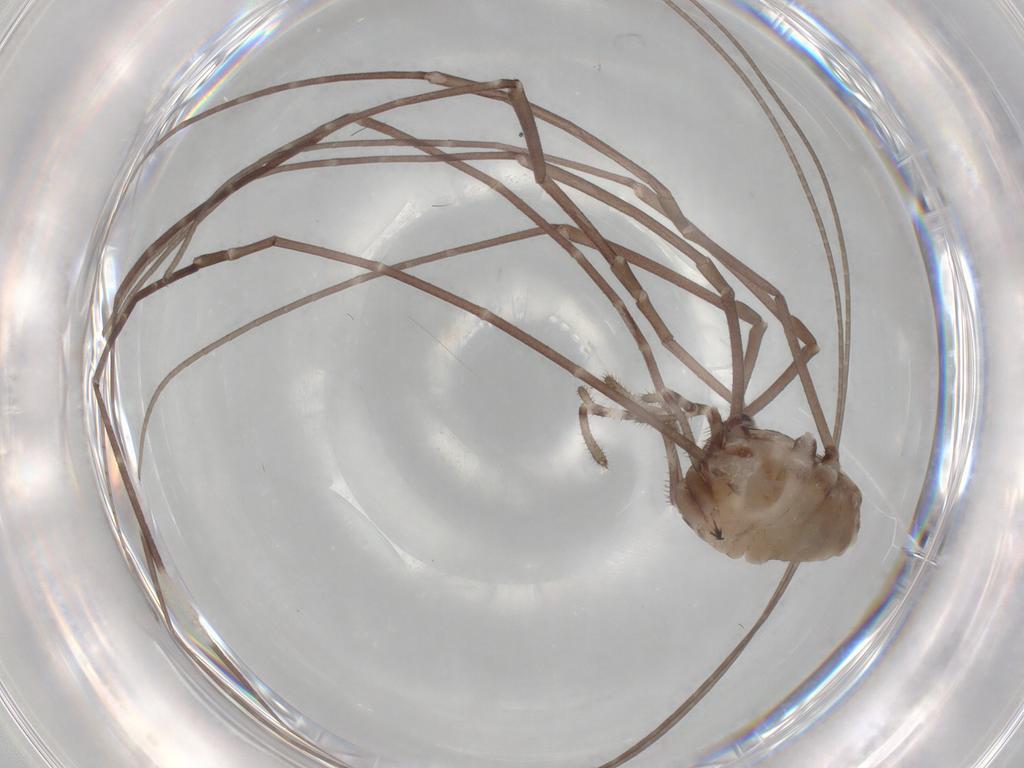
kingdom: Animalia
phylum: Arthropoda
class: Arachnida
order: Opiliones
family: Sclerosomatidae
